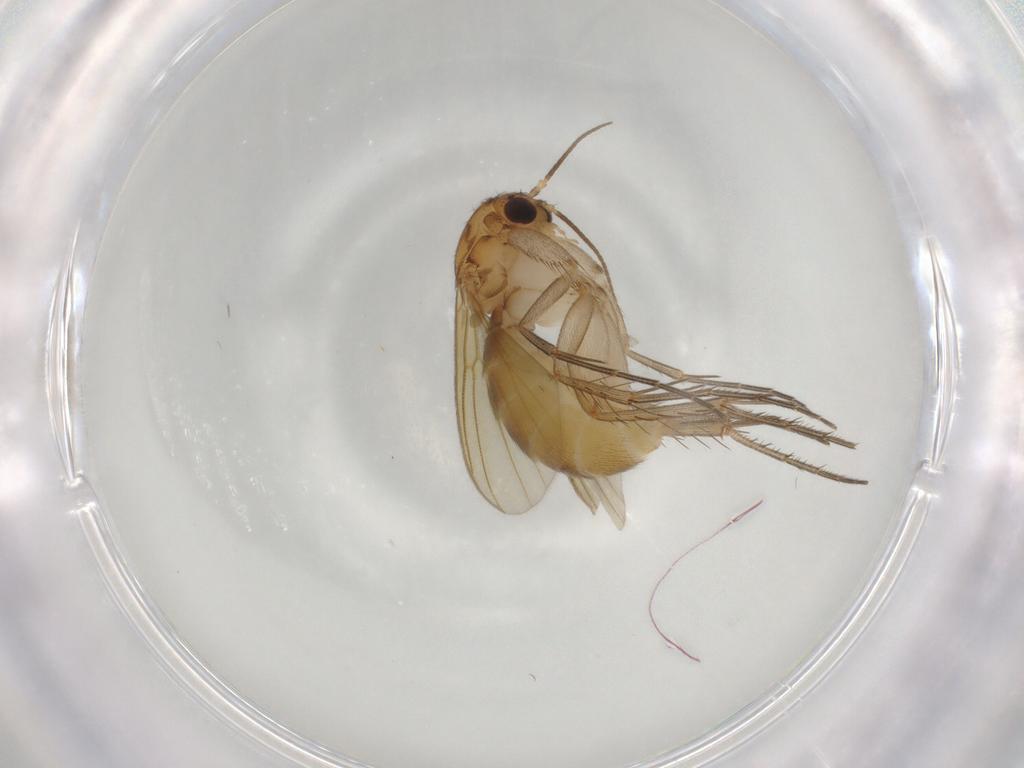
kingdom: Animalia
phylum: Arthropoda
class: Insecta
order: Diptera
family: Mycetophilidae
